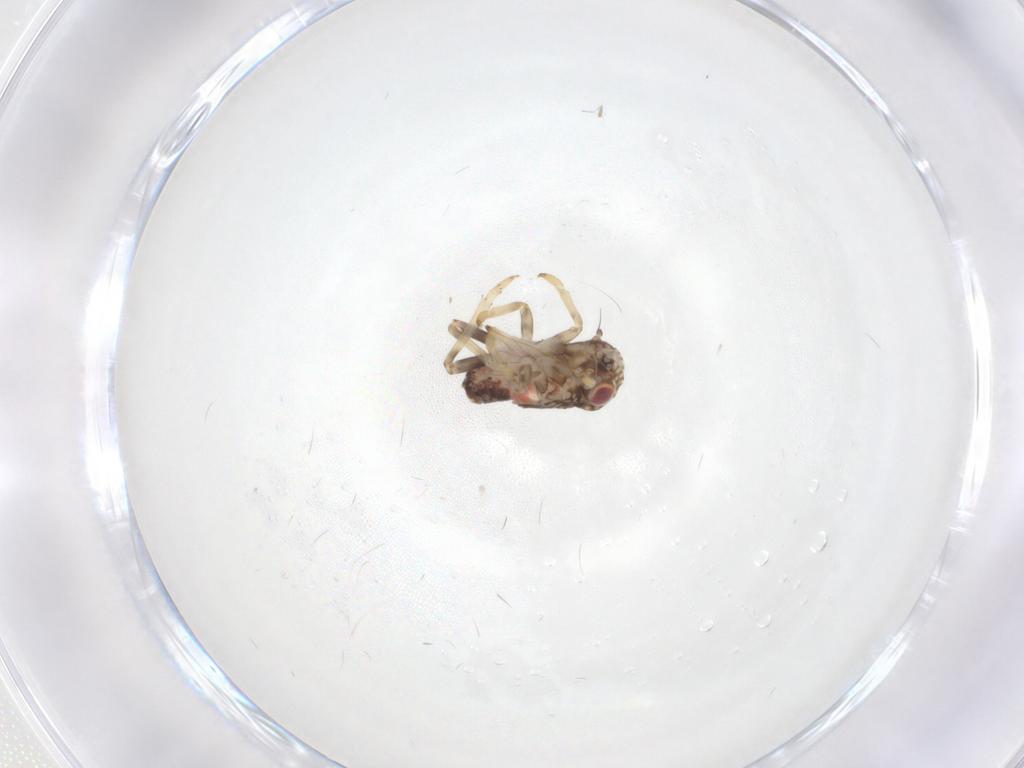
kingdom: Animalia
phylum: Arthropoda
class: Insecta
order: Hemiptera
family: Tropiduchidae
